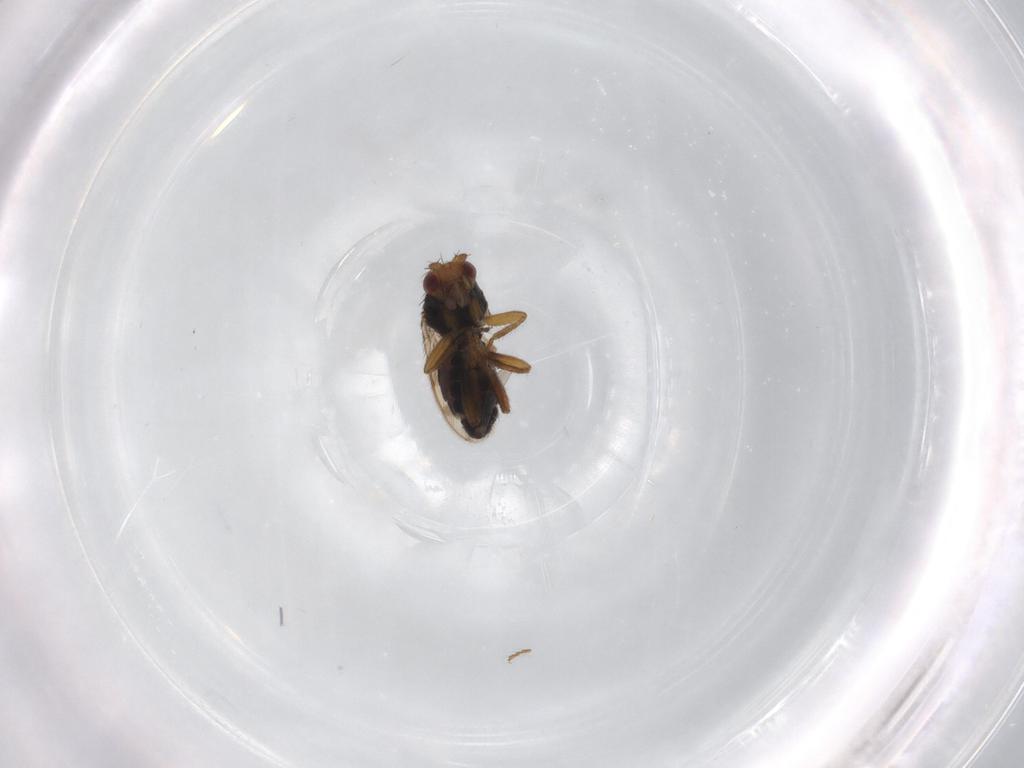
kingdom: Animalia
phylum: Arthropoda
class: Insecta
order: Diptera
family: Sphaeroceridae
